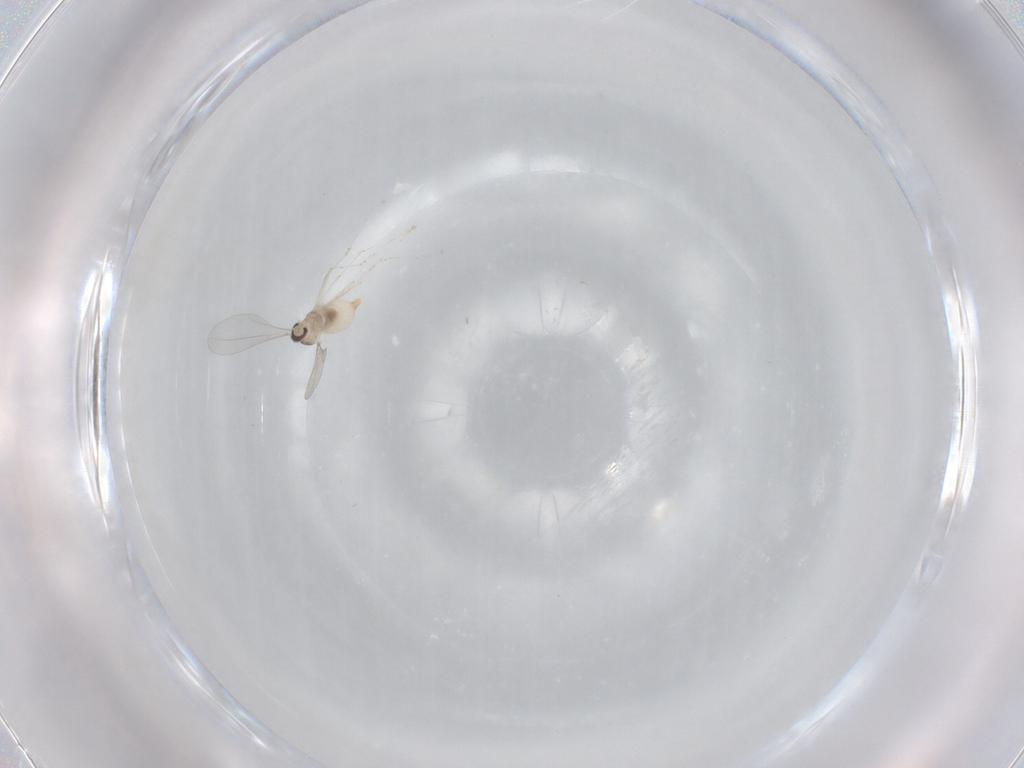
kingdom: Animalia
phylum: Arthropoda
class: Insecta
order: Diptera
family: Cecidomyiidae
